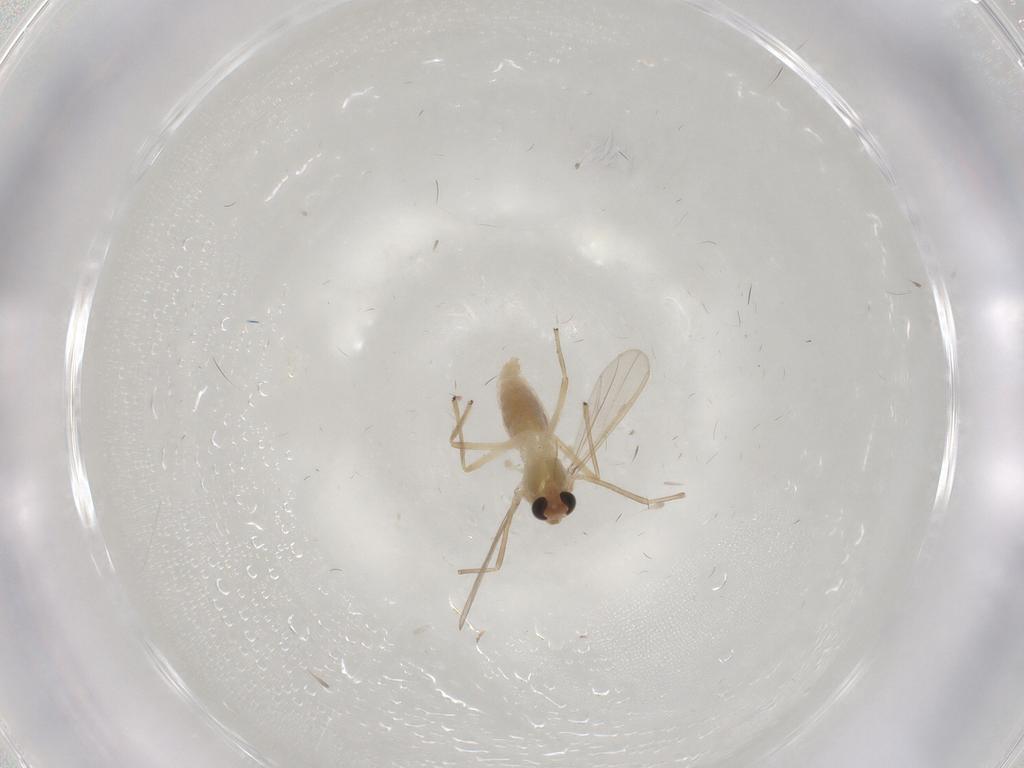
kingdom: Animalia
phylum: Arthropoda
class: Insecta
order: Diptera
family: Chironomidae
